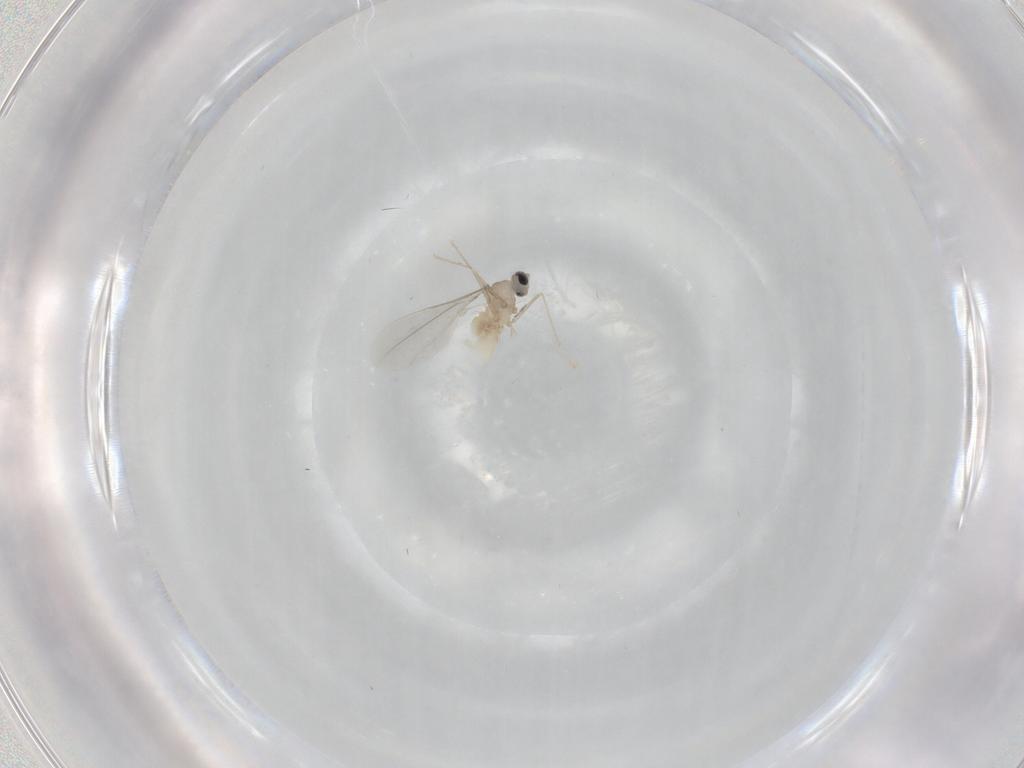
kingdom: Animalia
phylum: Arthropoda
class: Insecta
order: Diptera
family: Cecidomyiidae
